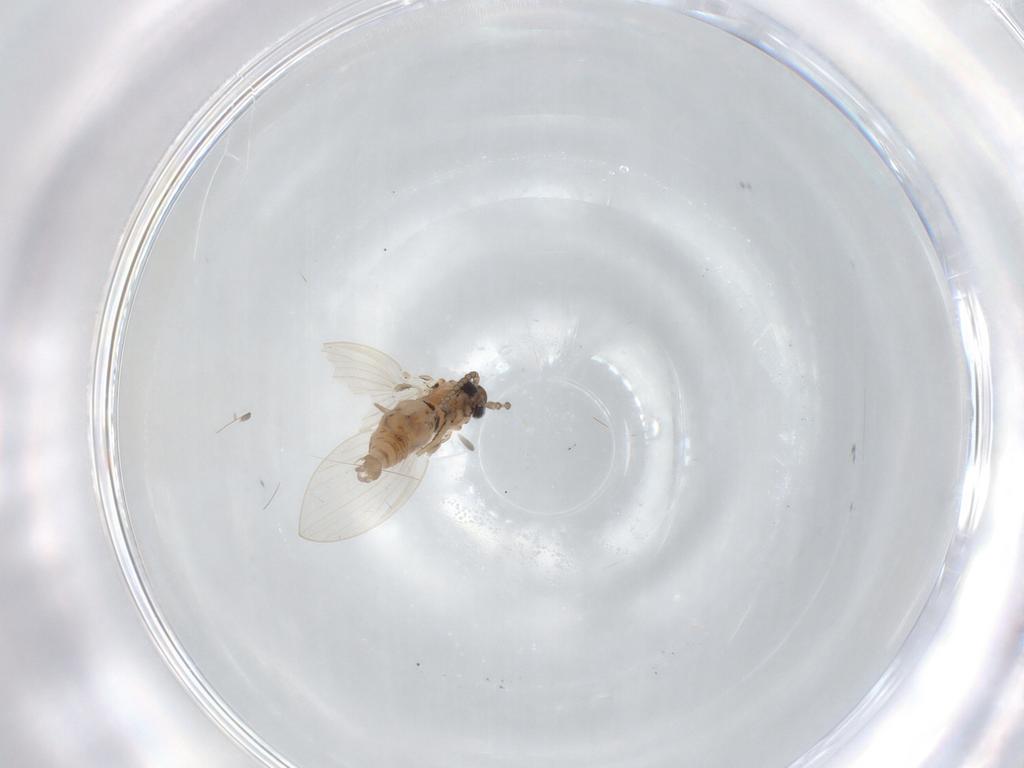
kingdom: Animalia
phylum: Arthropoda
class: Insecta
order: Diptera
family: Psychodidae
